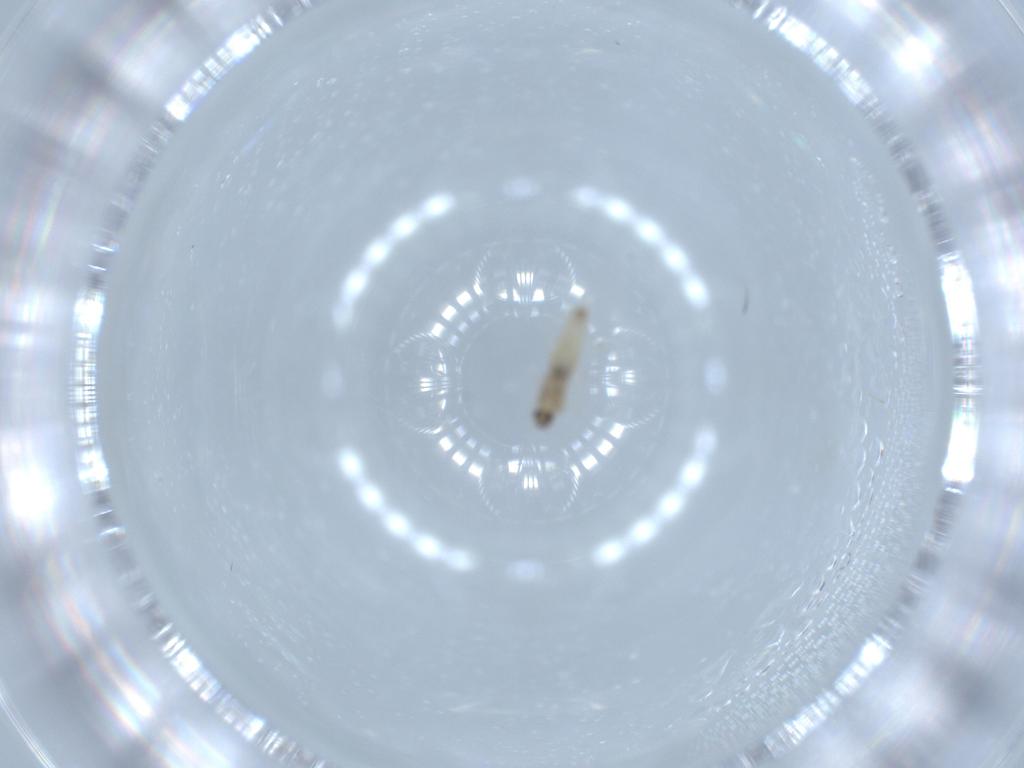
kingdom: Animalia
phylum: Arthropoda
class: Insecta
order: Diptera
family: Cecidomyiidae
